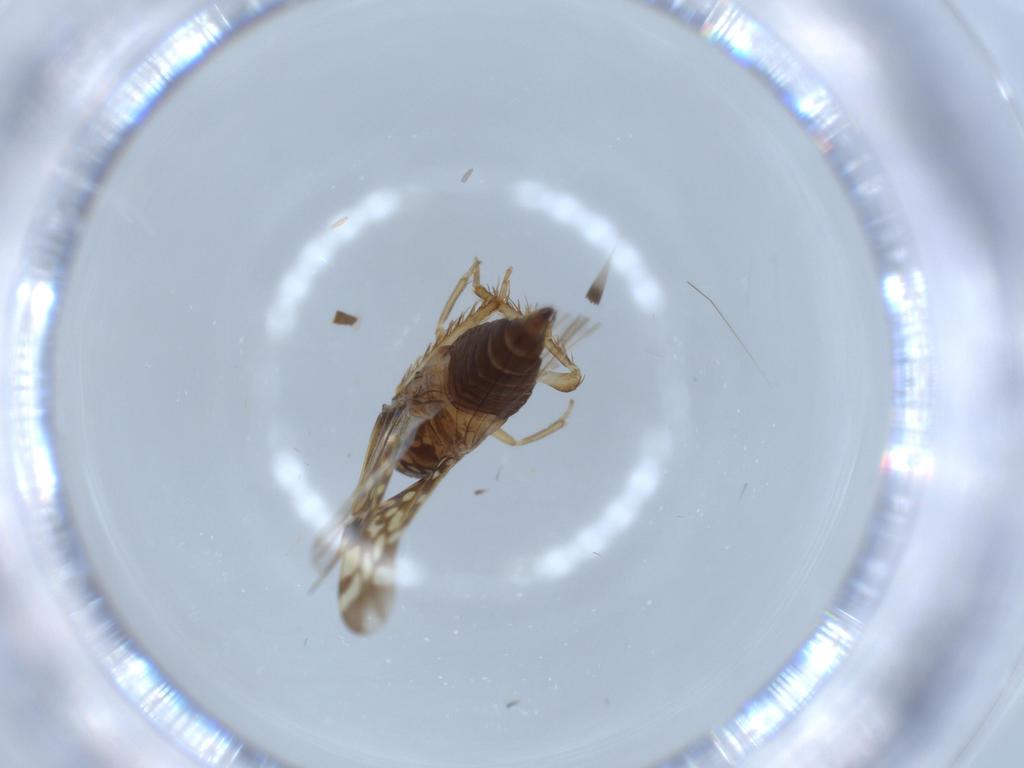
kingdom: Animalia
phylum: Arthropoda
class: Insecta
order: Hemiptera
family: Cicadellidae
